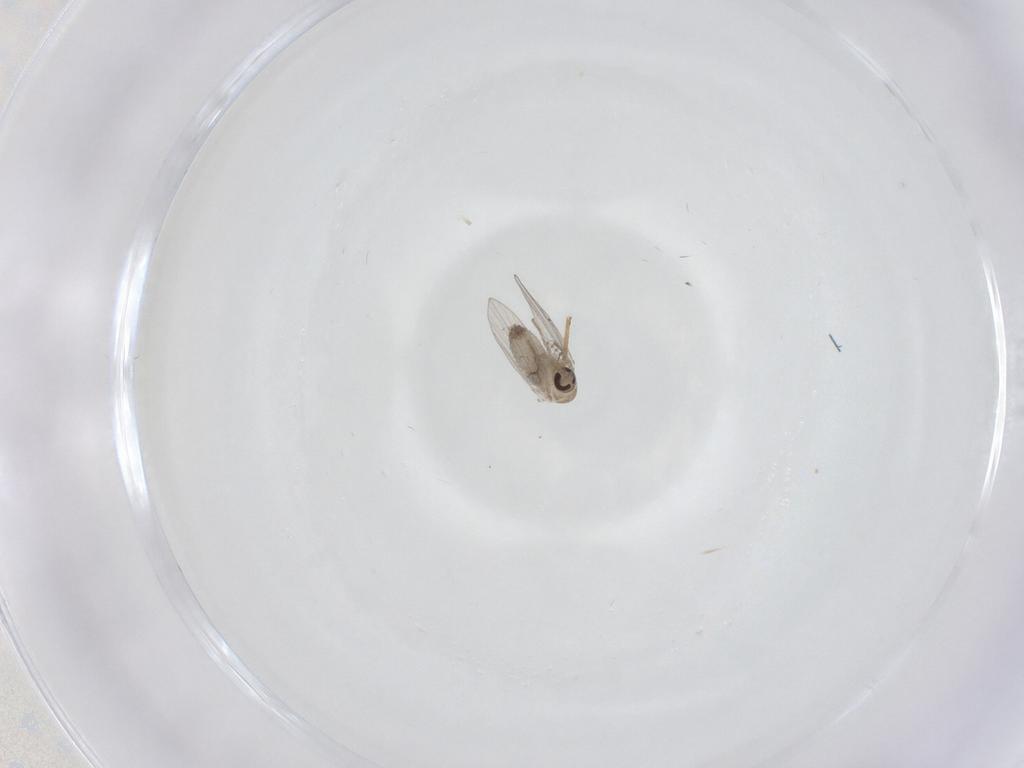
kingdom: Animalia
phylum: Arthropoda
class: Insecta
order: Diptera
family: Psychodidae
